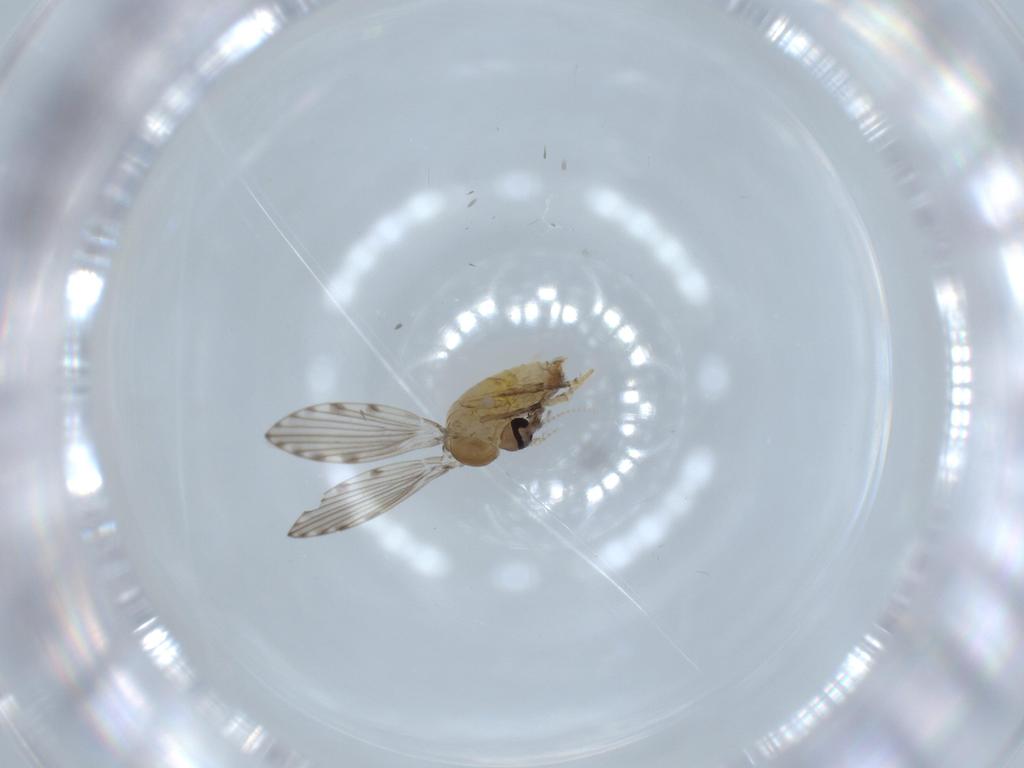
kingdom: Animalia
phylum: Arthropoda
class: Insecta
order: Diptera
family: Psychodidae
